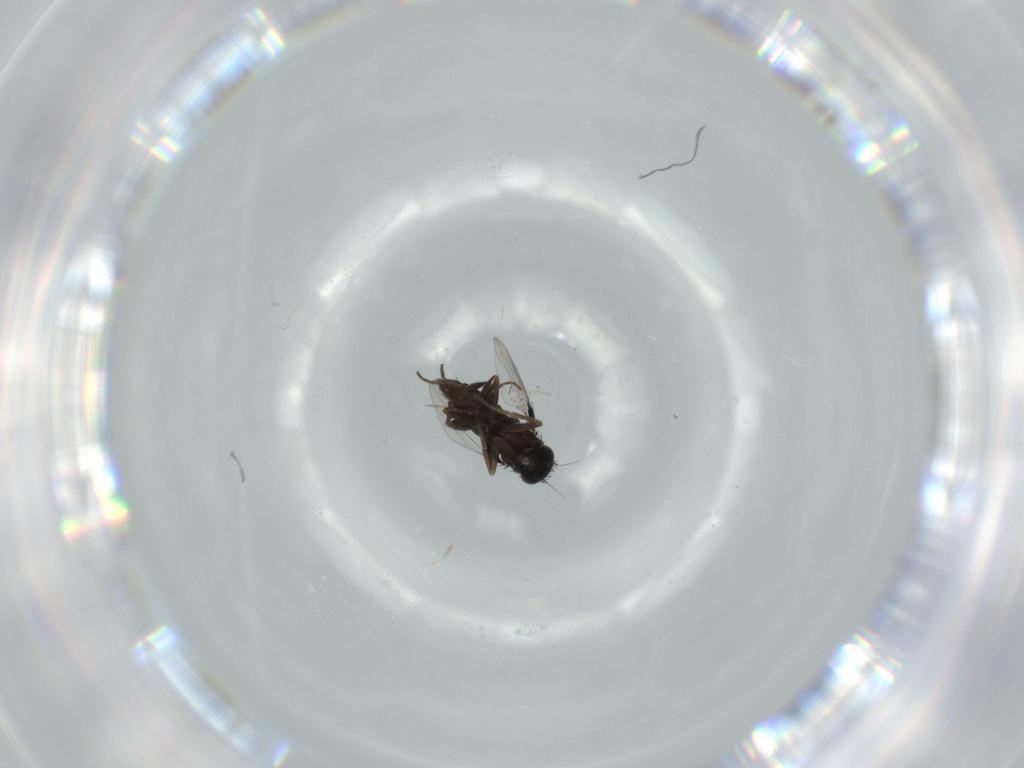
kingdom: Animalia
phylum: Arthropoda
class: Insecta
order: Diptera
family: Phoridae
